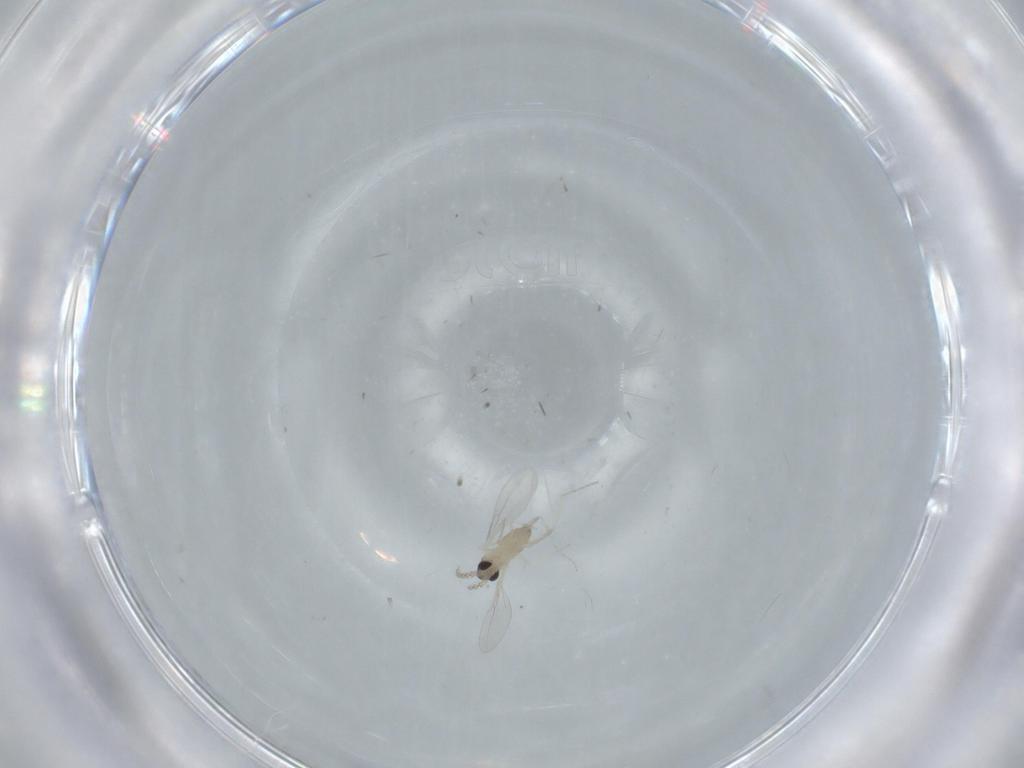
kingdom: Animalia
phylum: Arthropoda
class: Insecta
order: Diptera
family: Cecidomyiidae
